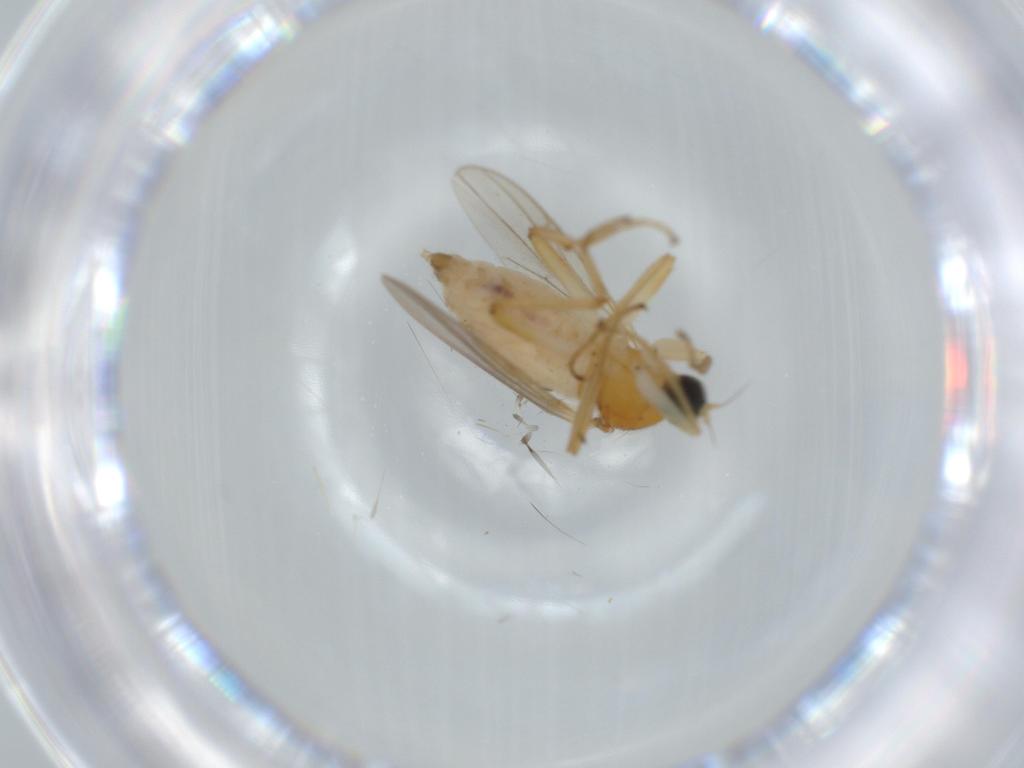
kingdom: Animalia
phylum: Arthropoda
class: Insecta
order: Diptera
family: Hybotidae
